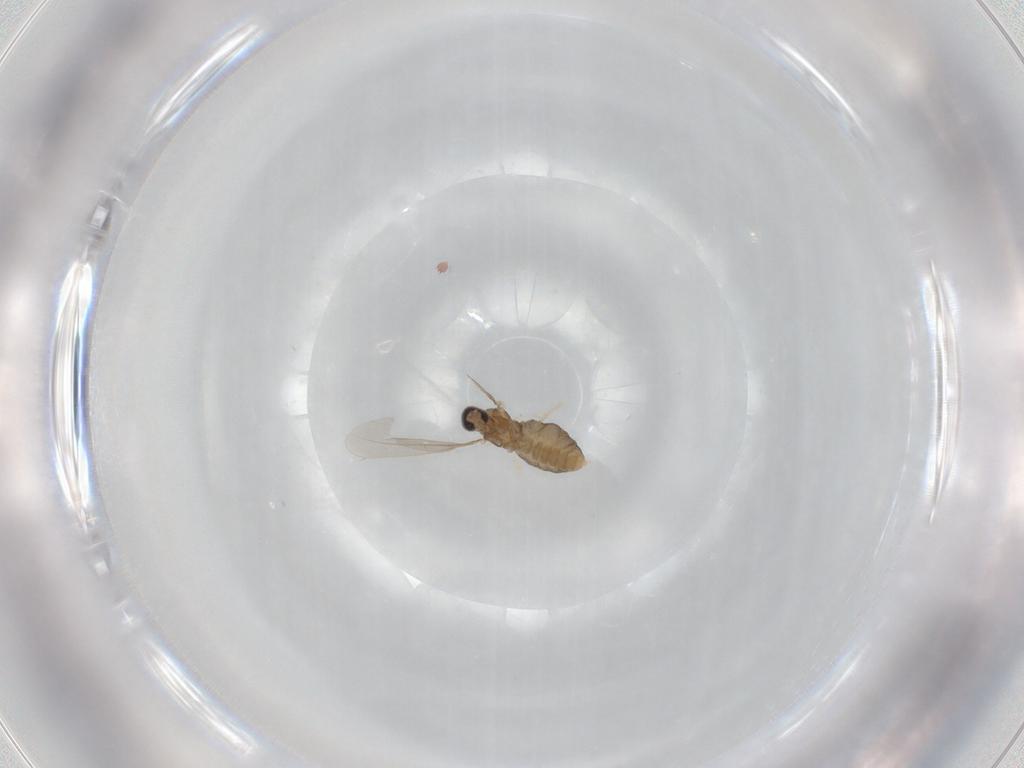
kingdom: Animalia
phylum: Arthropoda
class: Insecta
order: Diptera
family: Cecidomyiidae
